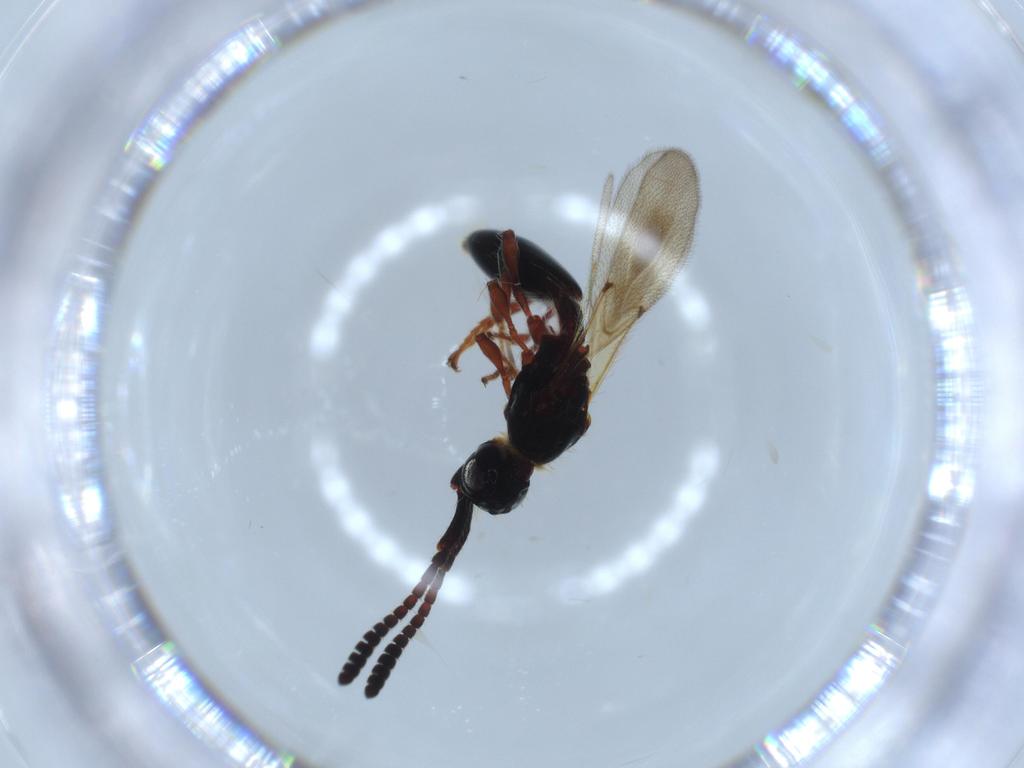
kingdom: Animalia
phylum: Arthropoda
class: Insecta
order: Hymenoptera
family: Diapriidae
